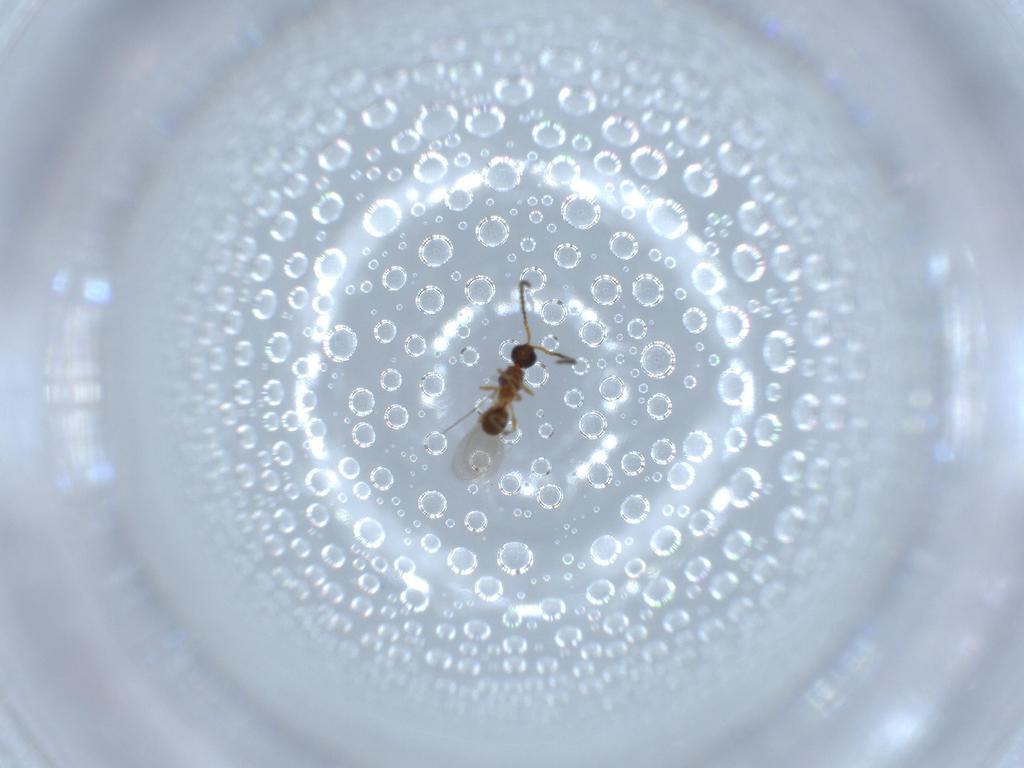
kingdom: Animalia
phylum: Arthropoda
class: Insecta
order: Hymenoptera
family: Diapriidae
